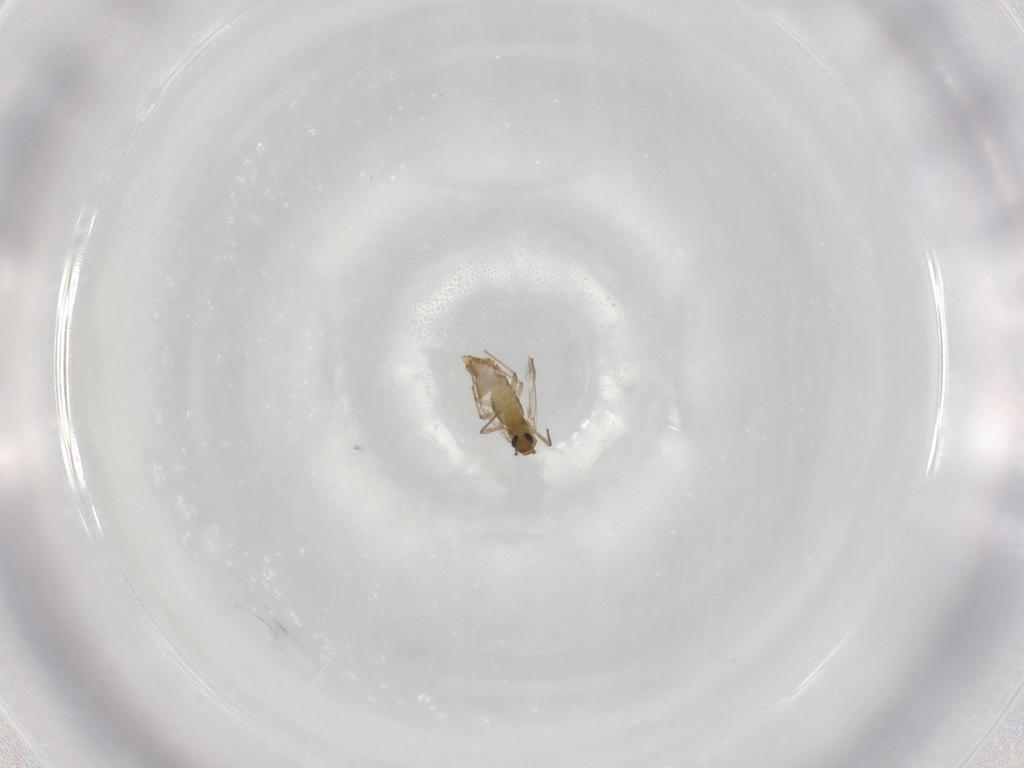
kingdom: Animalia
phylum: Arthropoda
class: Insecta
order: Diptera
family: Chironomidae
